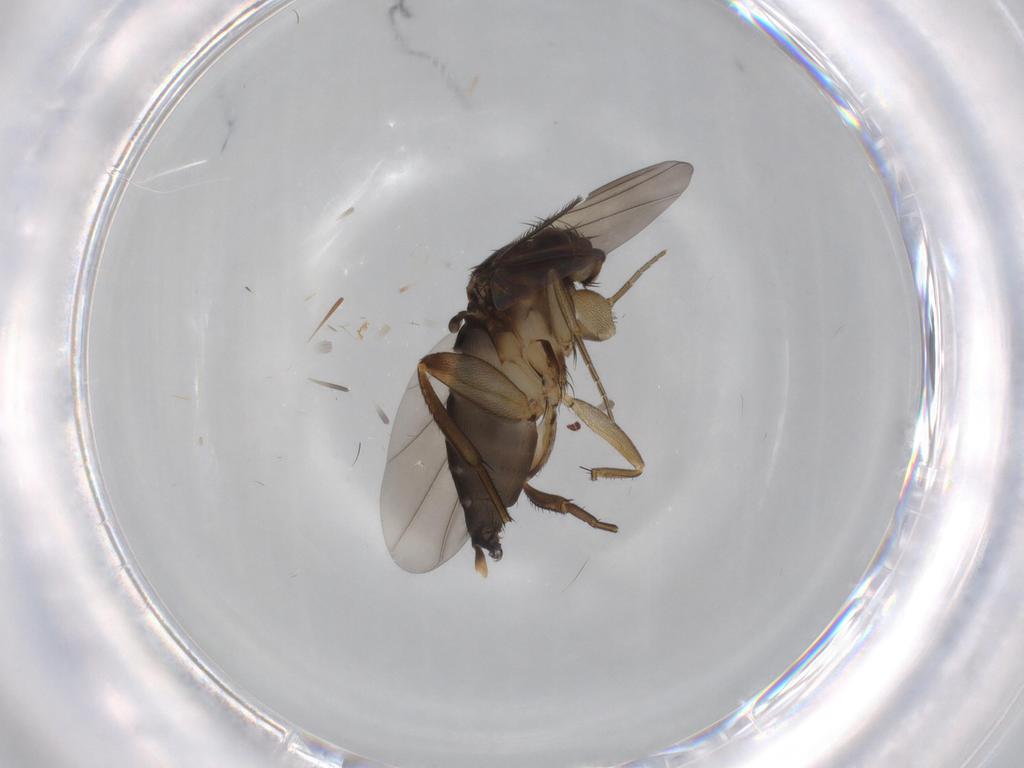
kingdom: Animalia
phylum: Arthropoda
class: Insecta
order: Diptera
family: Phoridae
